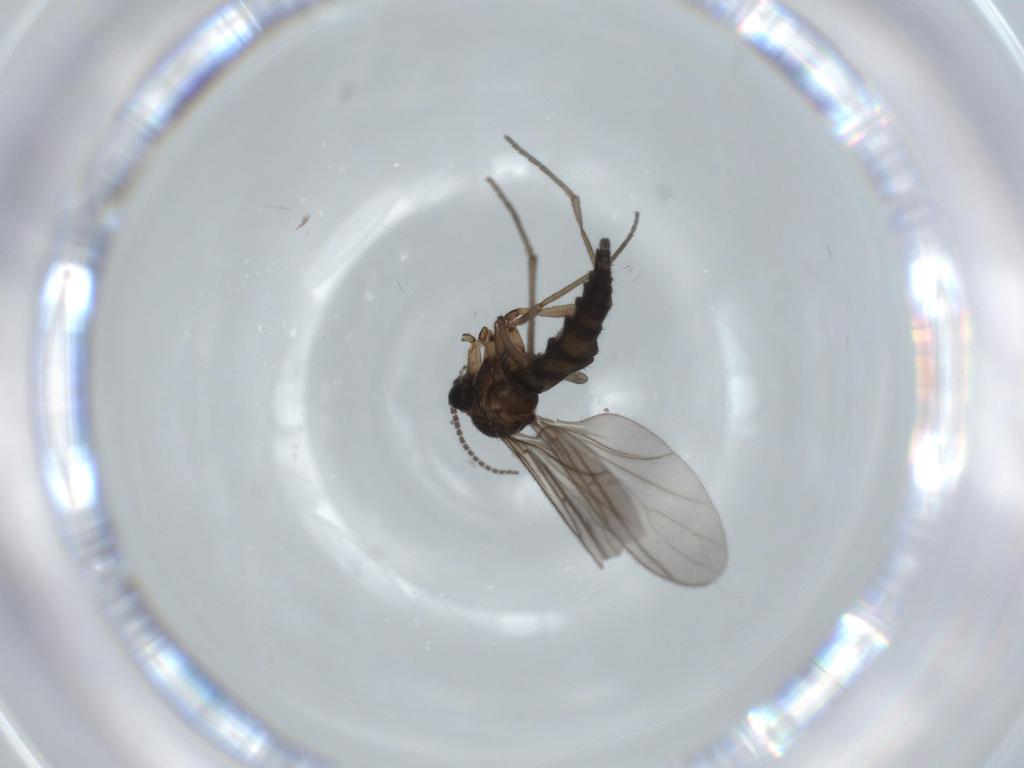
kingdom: Animalia
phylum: Arthropoda
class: Insecta
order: Diptera
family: Sciaridae
